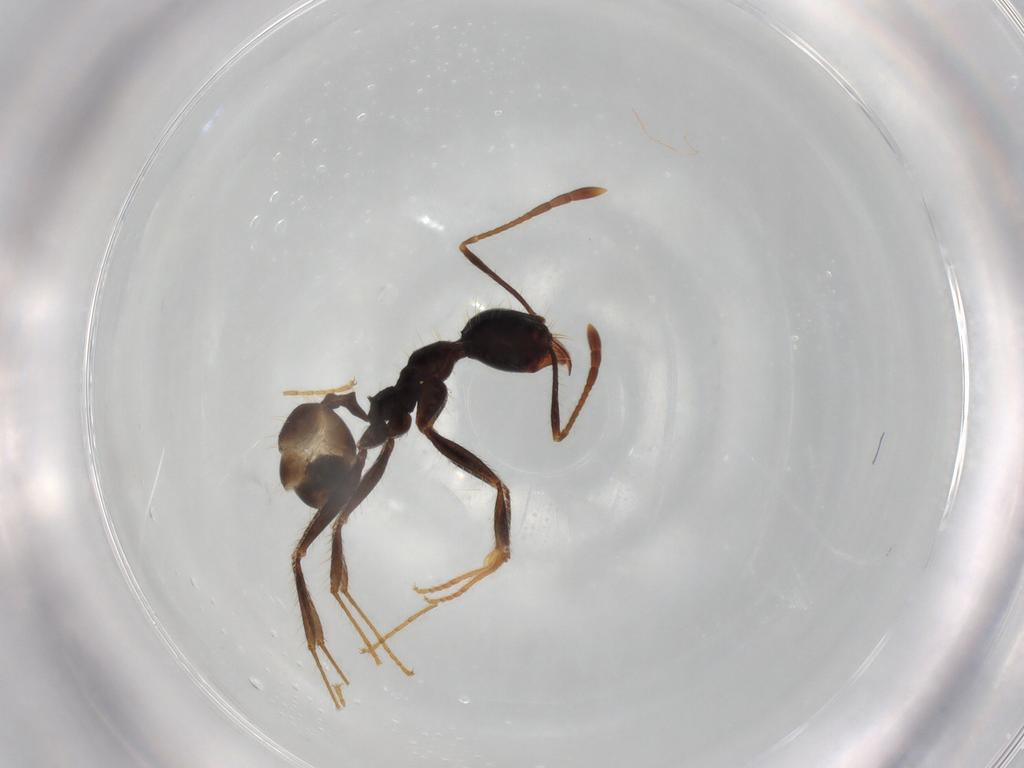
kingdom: Animalia
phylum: Arthropoda
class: Insecta
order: Hymenoptera
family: Formicidae
